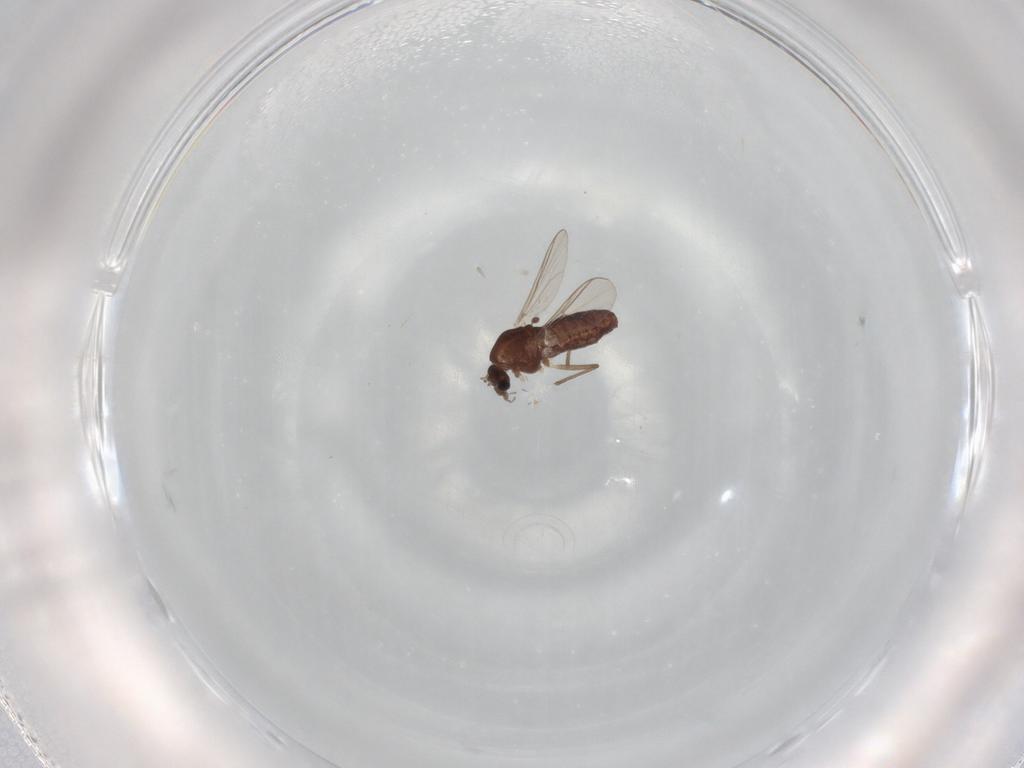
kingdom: Animalia
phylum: Arthropoda
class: Insecta
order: Diptera
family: Chironomidae
